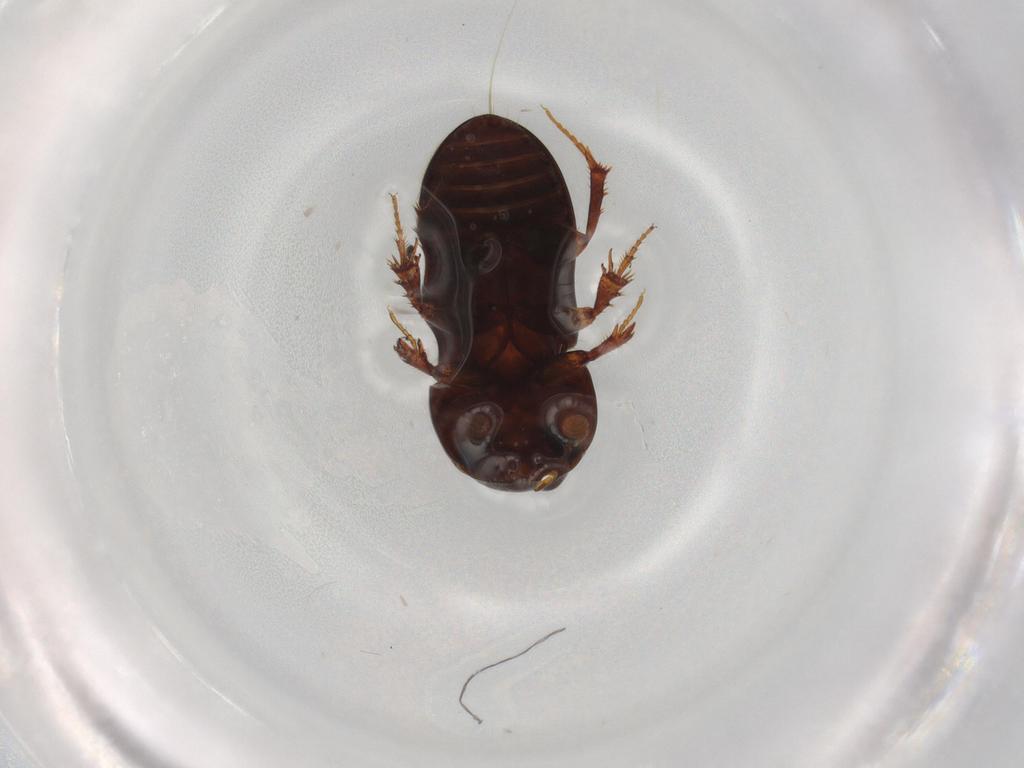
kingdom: Animalia
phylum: Arthropoda
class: Insecta
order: Coleoptera
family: Scarabaeidae
